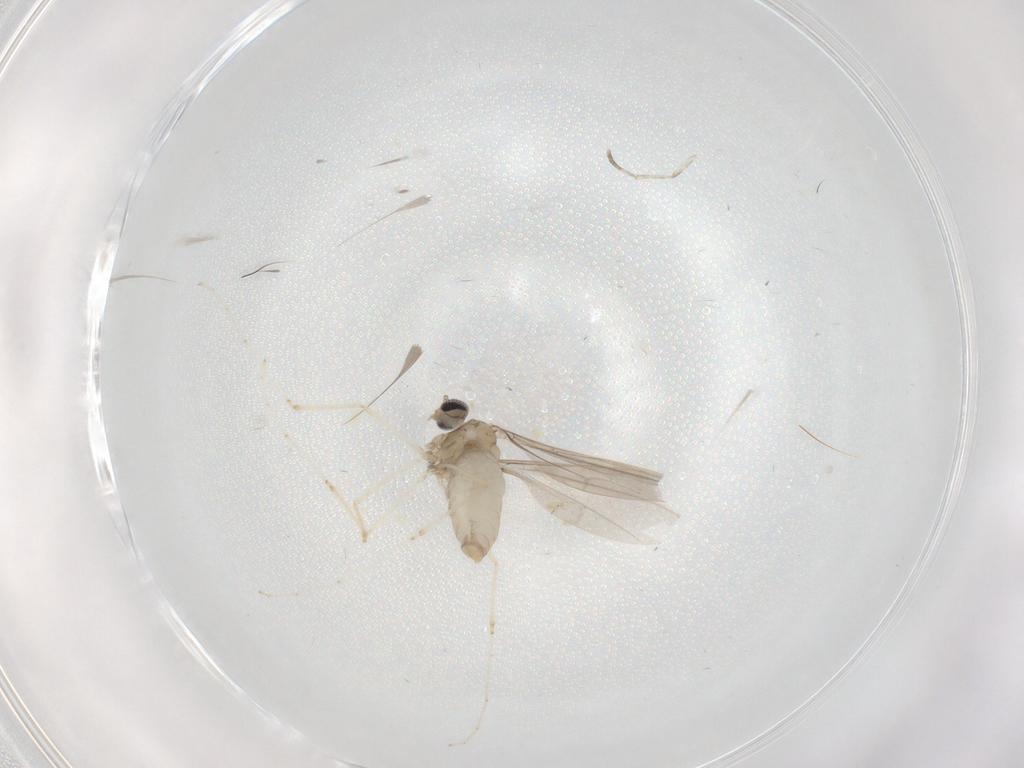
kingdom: Animalia
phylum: Arthropoda
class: Insecta
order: Diptera
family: Cecidomyiidae
